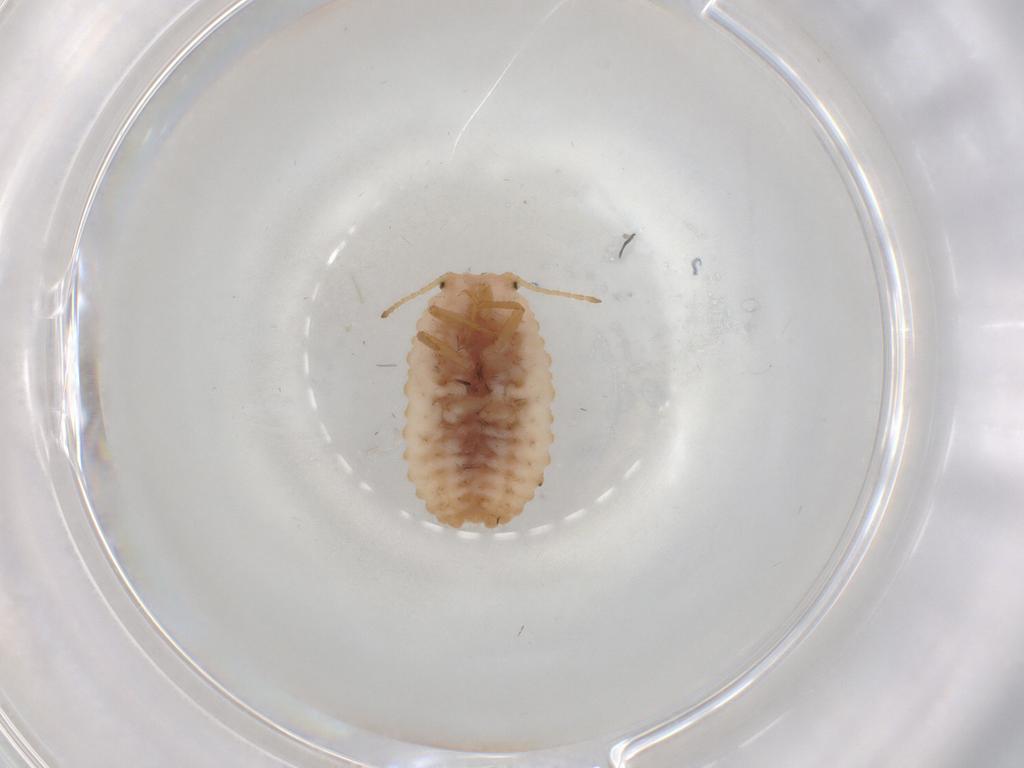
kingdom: Animalia
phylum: Arthropoda
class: Insecta
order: Hemiptera
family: Coccoidea_incertae_sedis
